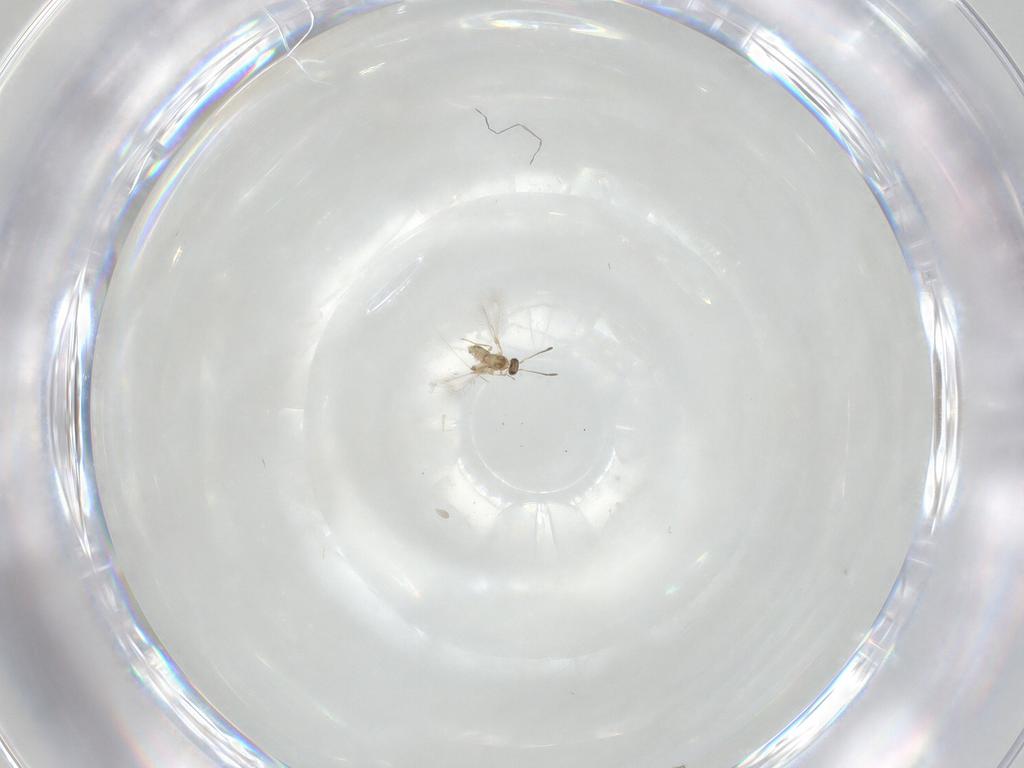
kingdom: Animalia
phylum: Arthropoda
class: Insecta
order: Hymenoptera
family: Mymaridae
